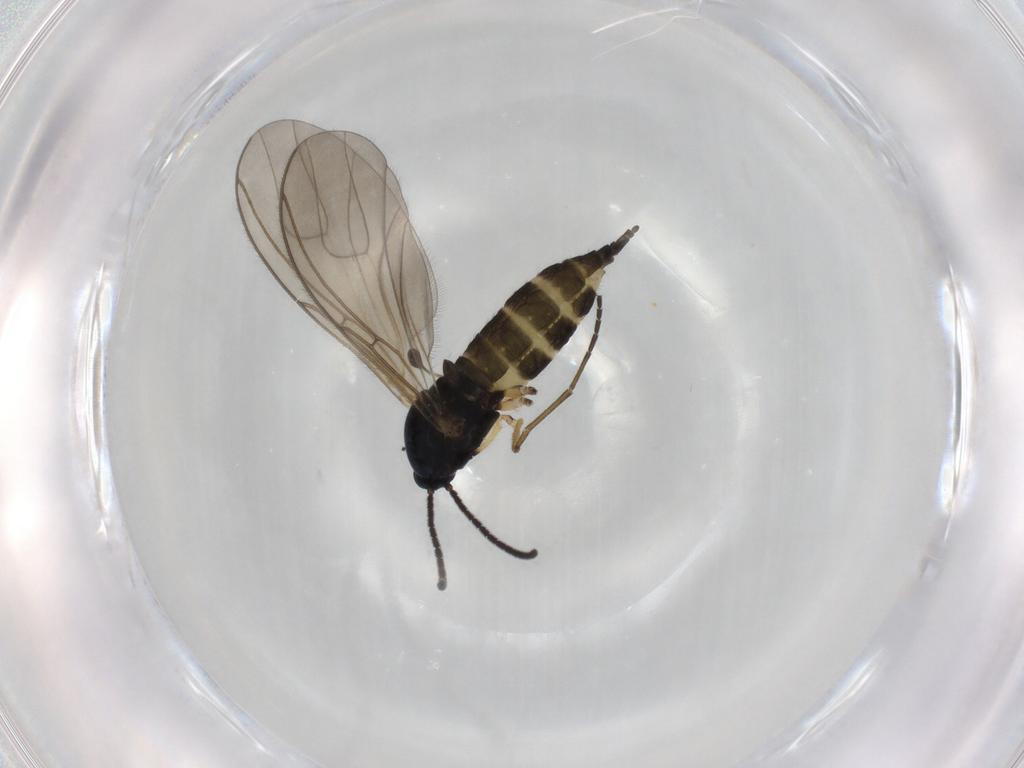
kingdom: Animalia
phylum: Arthropoda
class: Insecta
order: Diptera
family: Sciaridae
